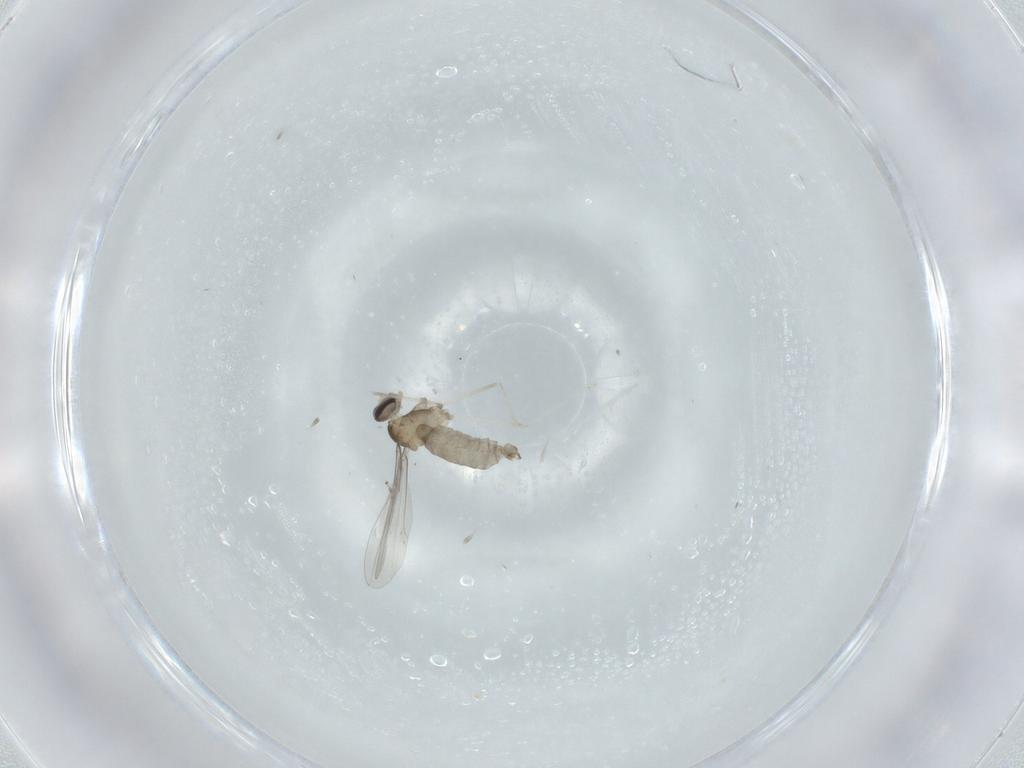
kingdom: Animalia
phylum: Arthropoda
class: Insecta
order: Diptera
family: Cecidomyiidae
